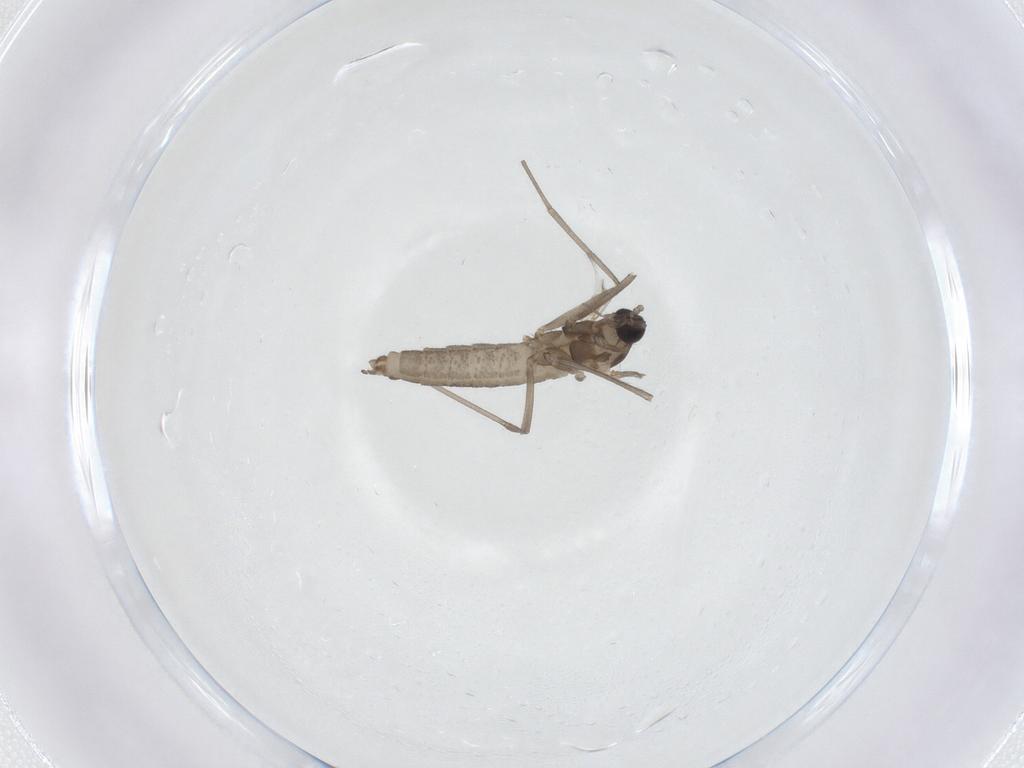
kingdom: Animalia
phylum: Arthropoda
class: Insecta
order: Diptera
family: Cecidomyiidae
